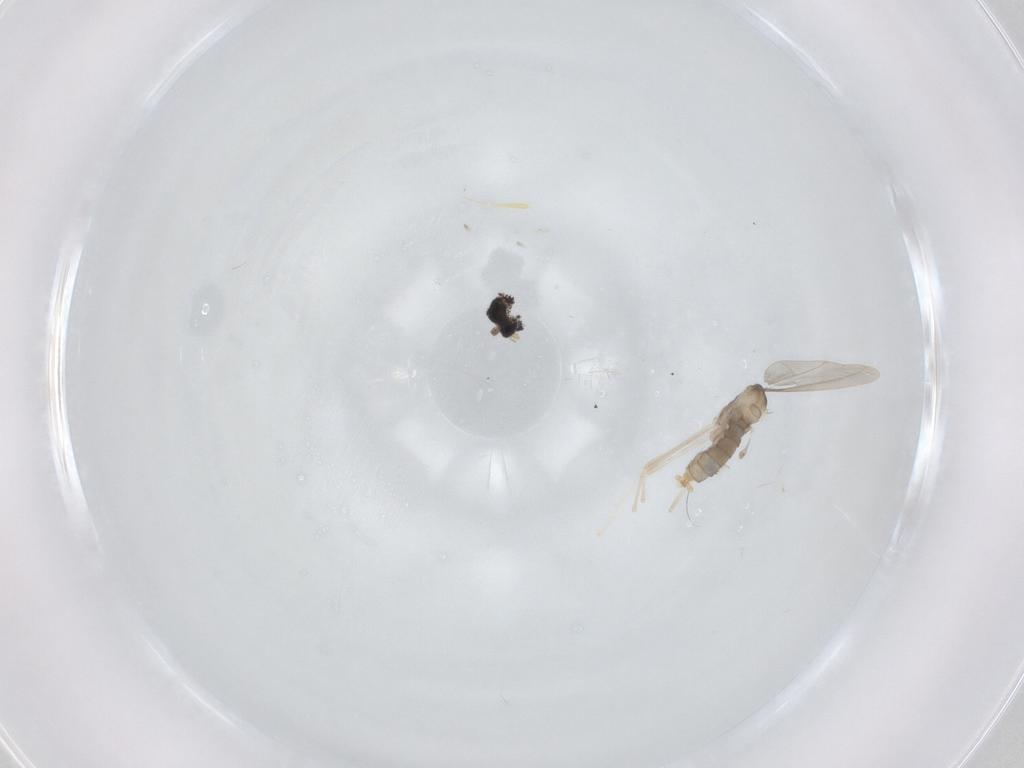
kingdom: Animalia
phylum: Arthropoda
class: Insecta
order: Diptera
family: Cecidomyiidae
